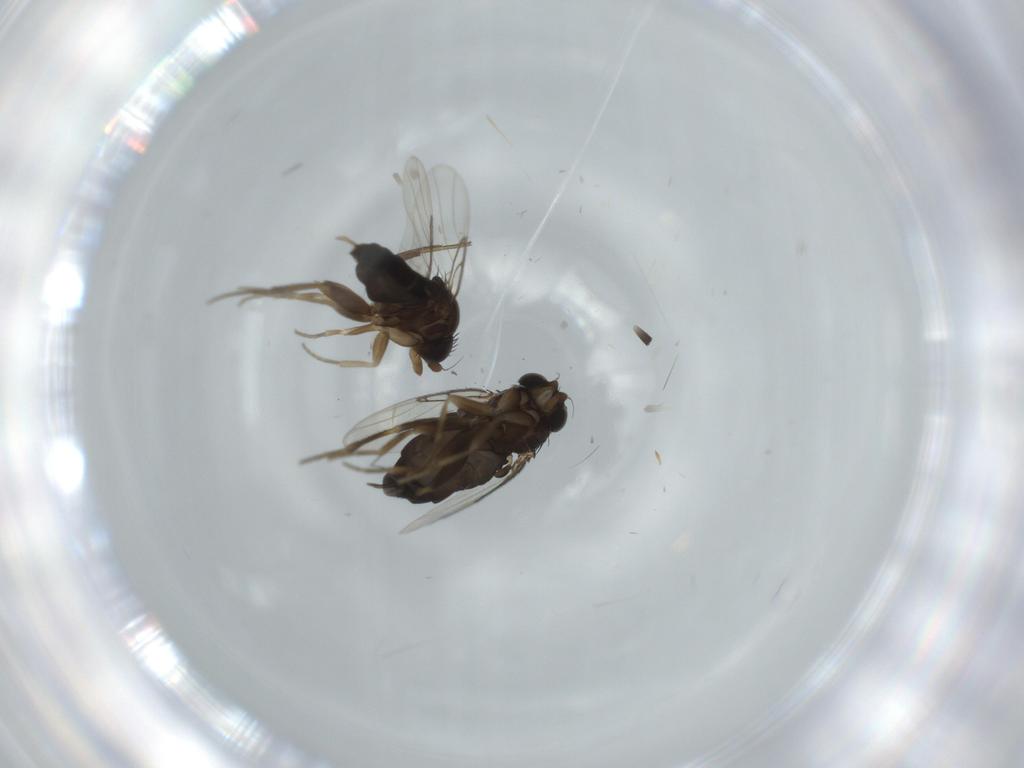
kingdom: Animalia
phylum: Arthropoda
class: Insecta
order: Diptera
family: Phoridae
